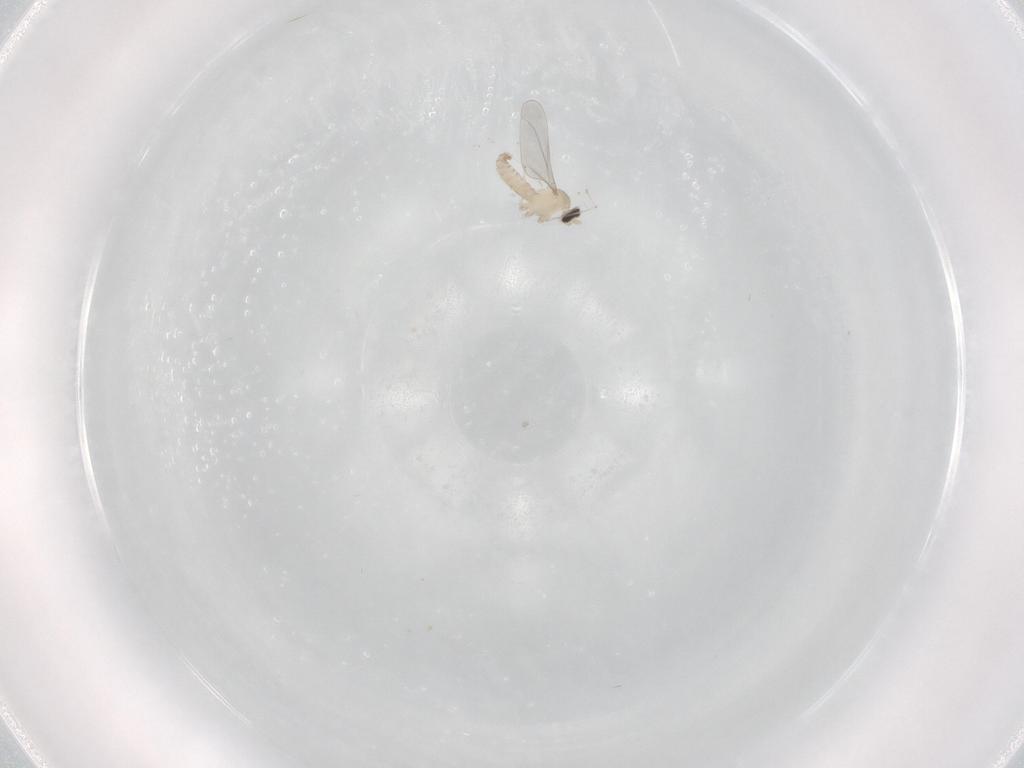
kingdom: Animalia
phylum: Arthropoda
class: Insecta
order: Diptera
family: Cecidomyiidae
